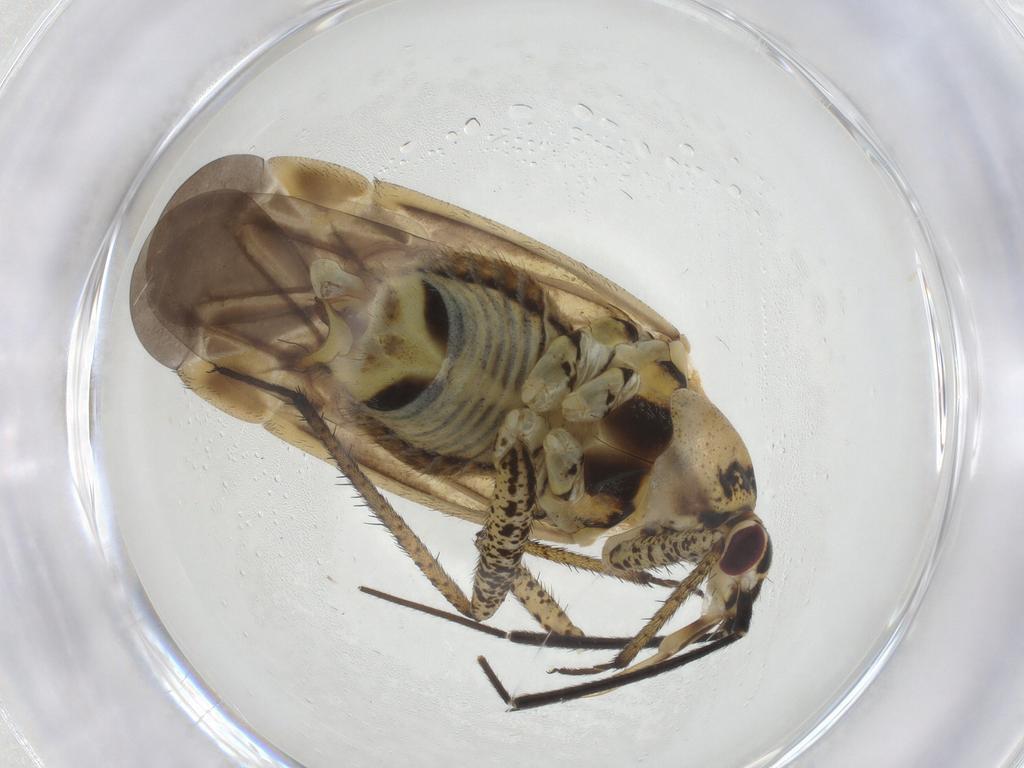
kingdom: Animalia
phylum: Arthropoda
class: Insecta
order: Hemiptera
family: Miridae
